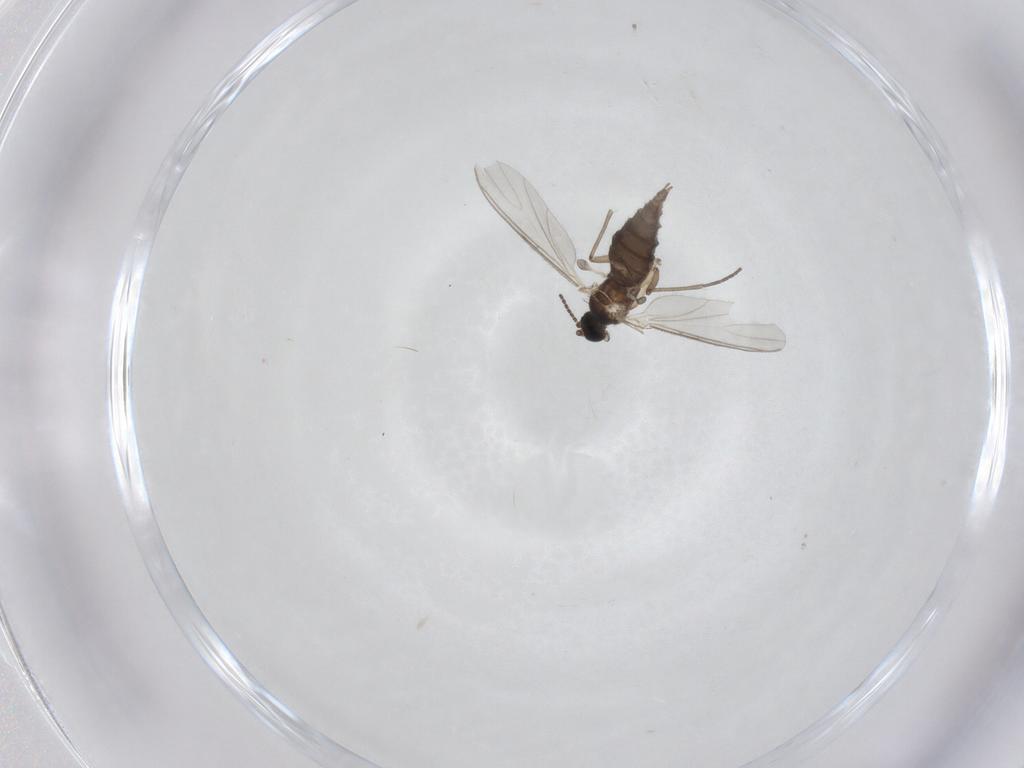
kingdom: Animalia
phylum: Arthropoda
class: Insecta
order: Diptera
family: Sciaridae
